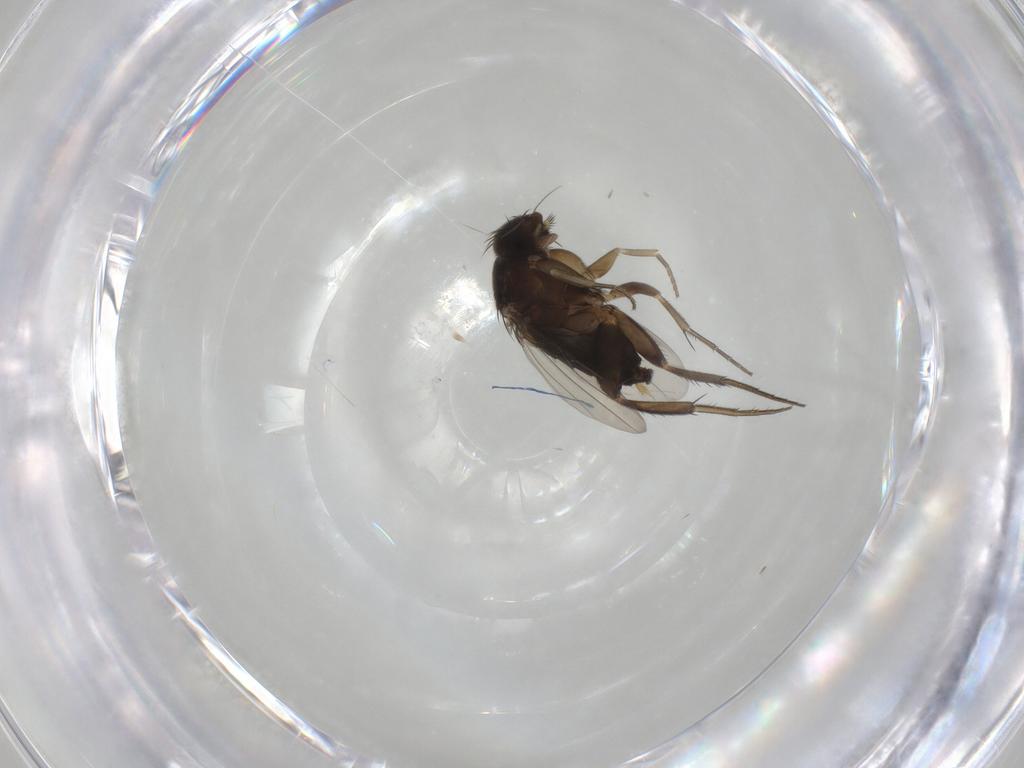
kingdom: Animalia
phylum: Arthropoda
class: Insecta
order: Diptera
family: Phoridae
